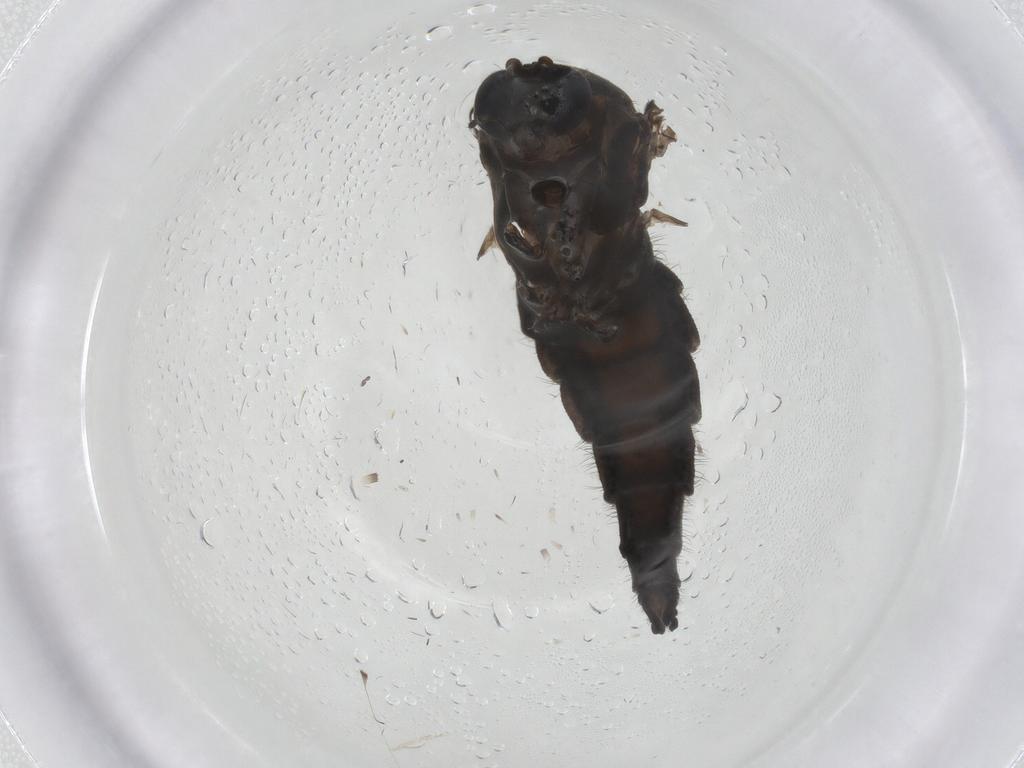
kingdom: Animalia
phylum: Arthropoda
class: Insecta
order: Diptera
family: Sciaridae
